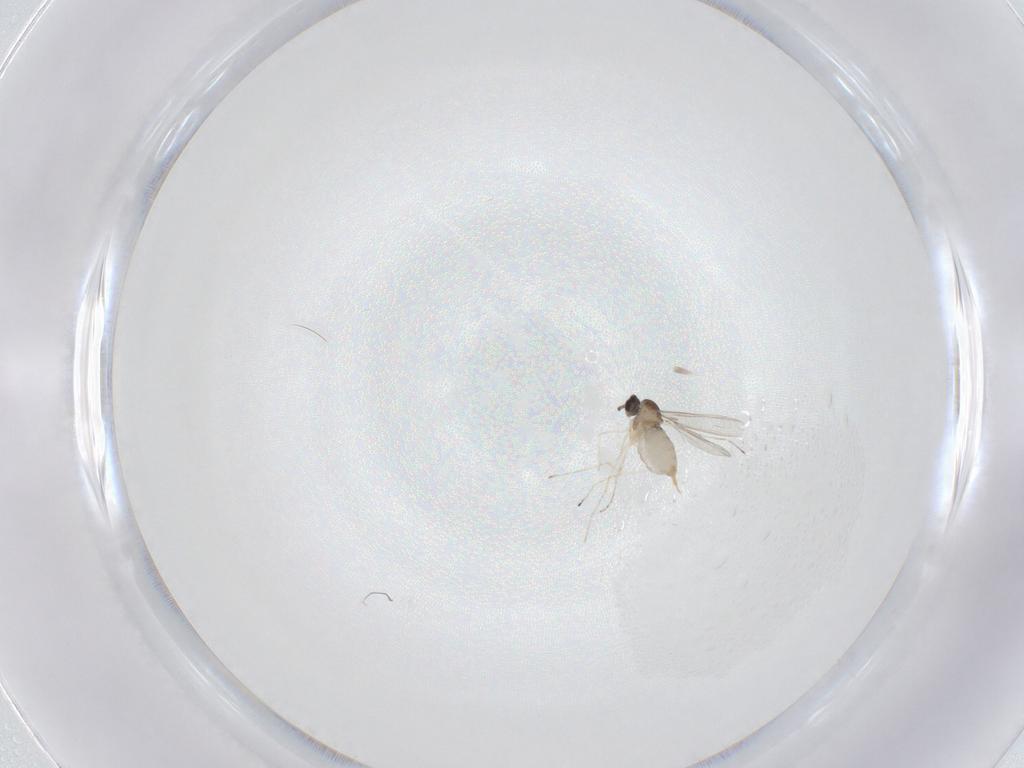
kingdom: Animalia
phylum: Arthropoda
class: Insecta
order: Diptera
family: Cecidomyiidae
